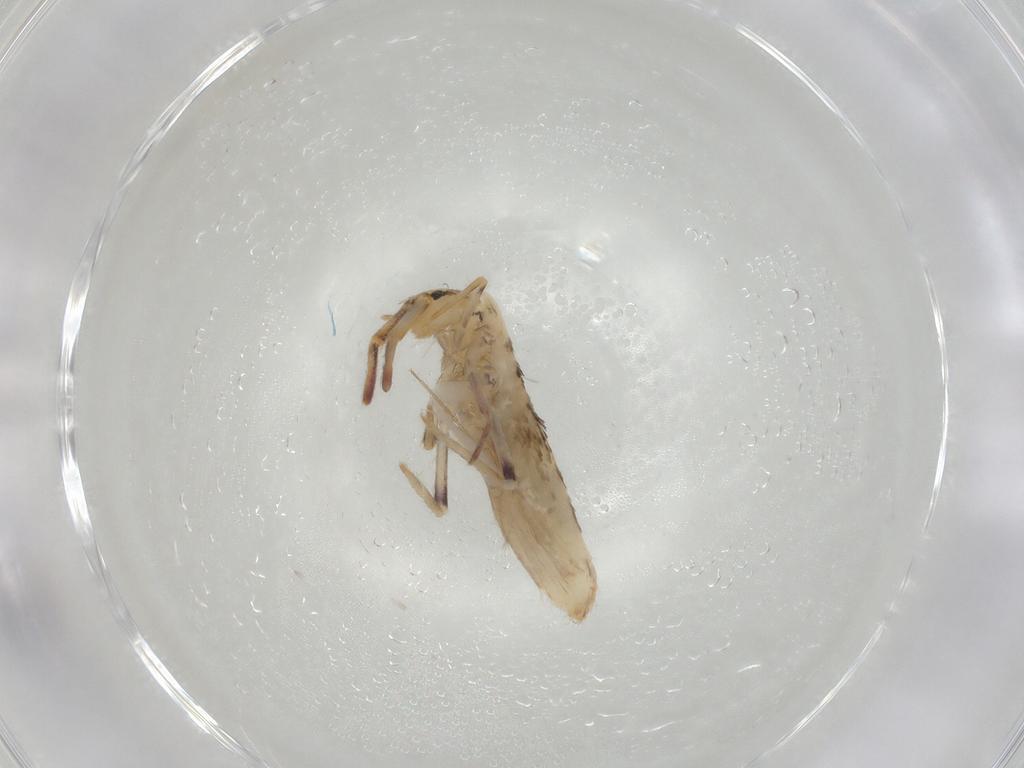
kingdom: Animalia
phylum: Arthropoda
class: Collembola
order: Poduromorpha
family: Hypogastruridae
